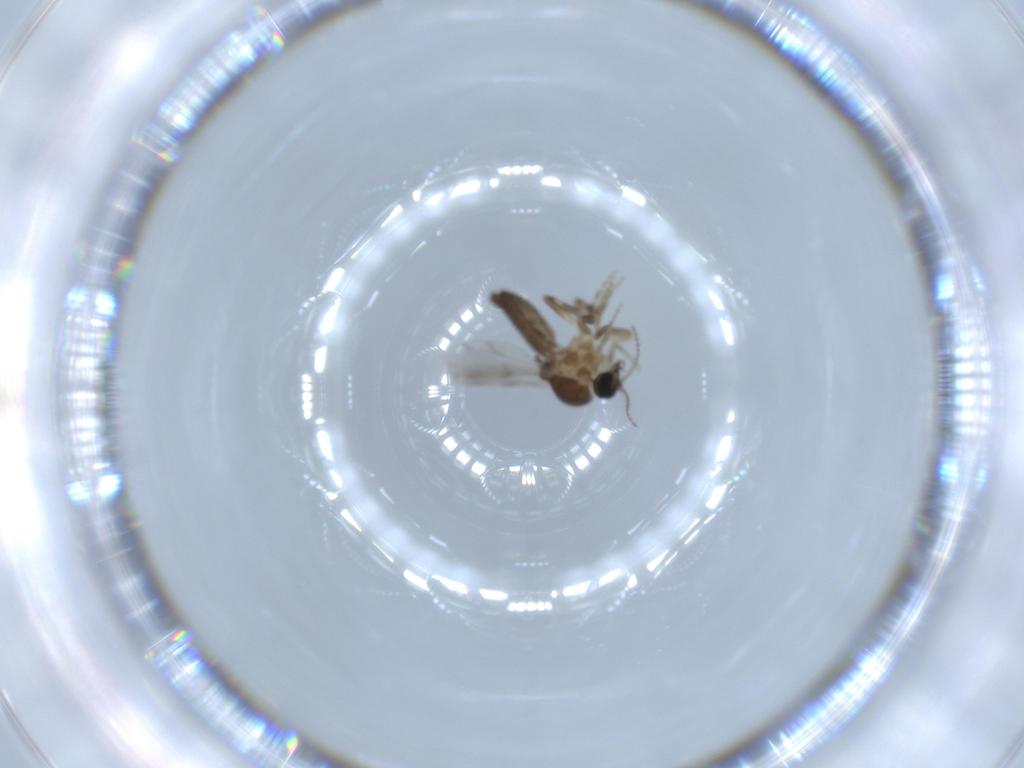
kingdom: Animalia
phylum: Arthropoda
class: Insecta
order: Diptera
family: Ceratopogonidae
